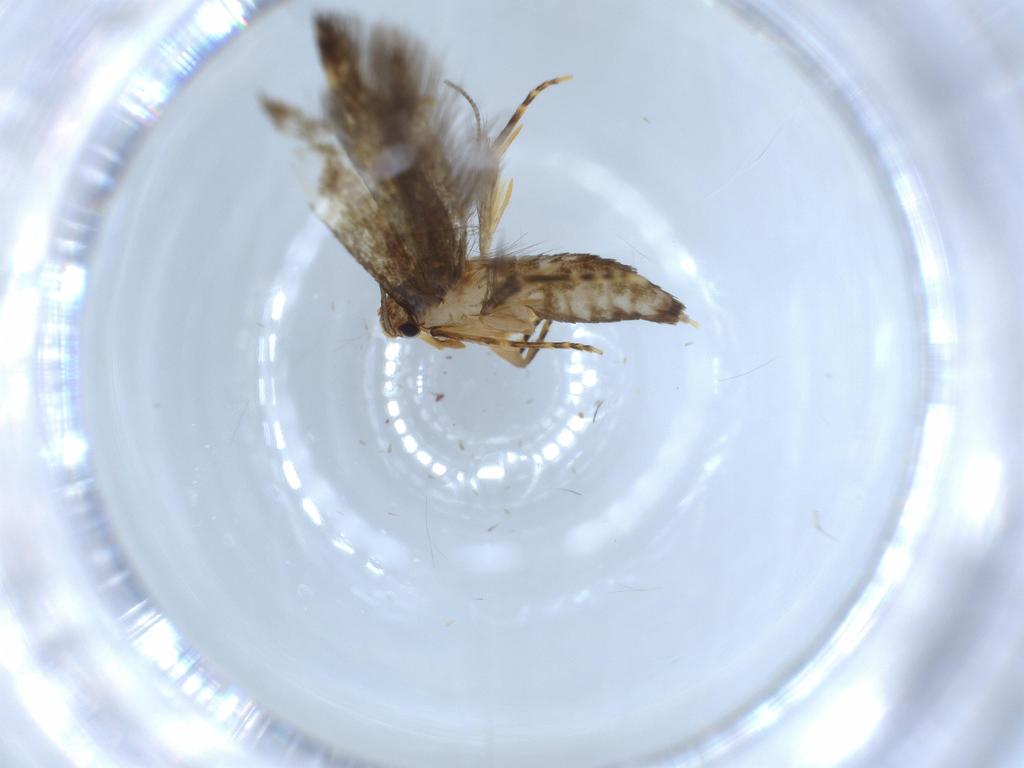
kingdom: Animalia
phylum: Arthropoda
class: Insecta
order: Lepidoptera
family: Tineidae
